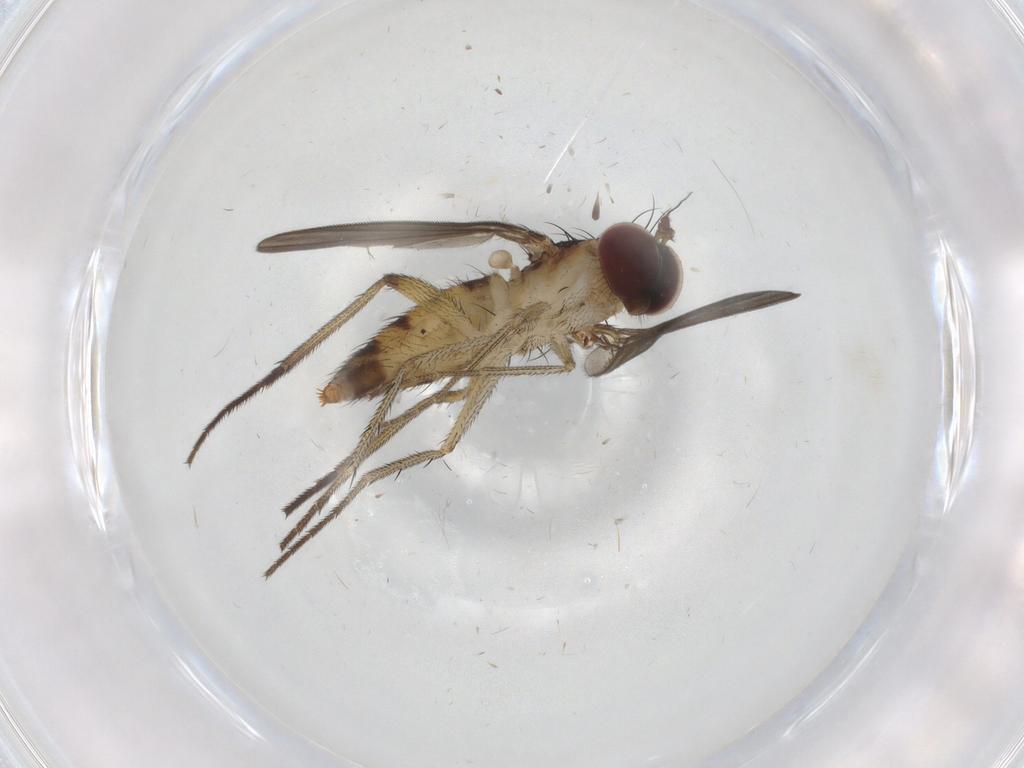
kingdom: Animalia
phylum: Arthropoda
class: Insecta
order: Diptera
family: Dolichopodidae
